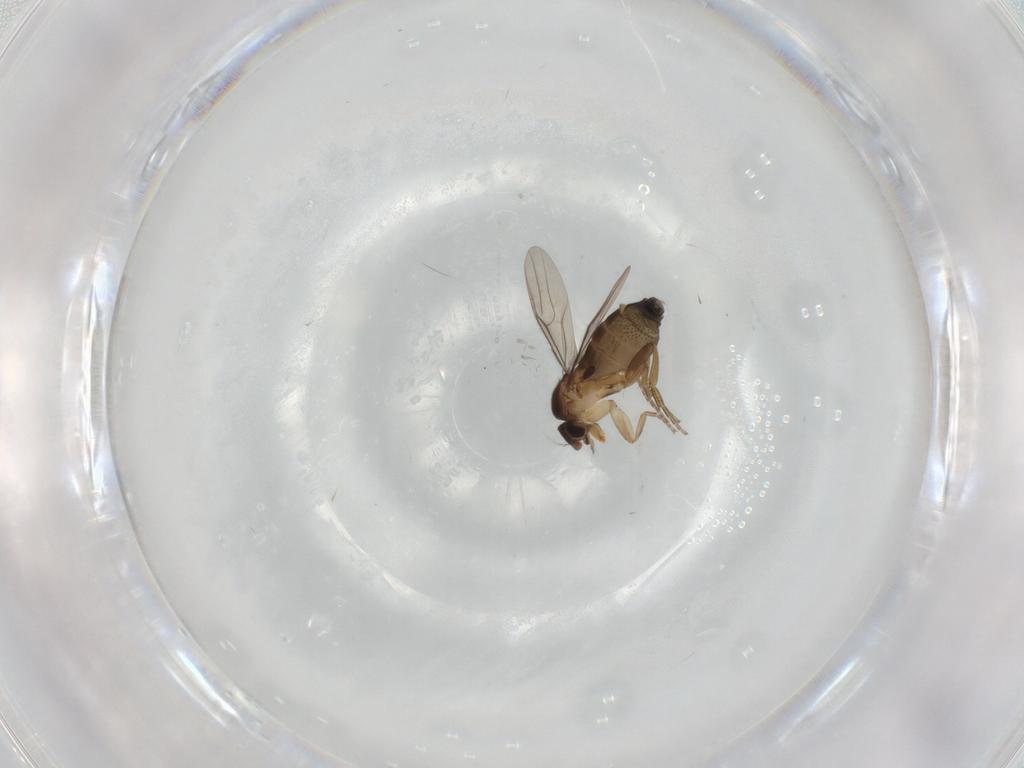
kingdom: Animalia
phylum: Arthropoda
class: Insecta
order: Diptera
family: Phoridae
